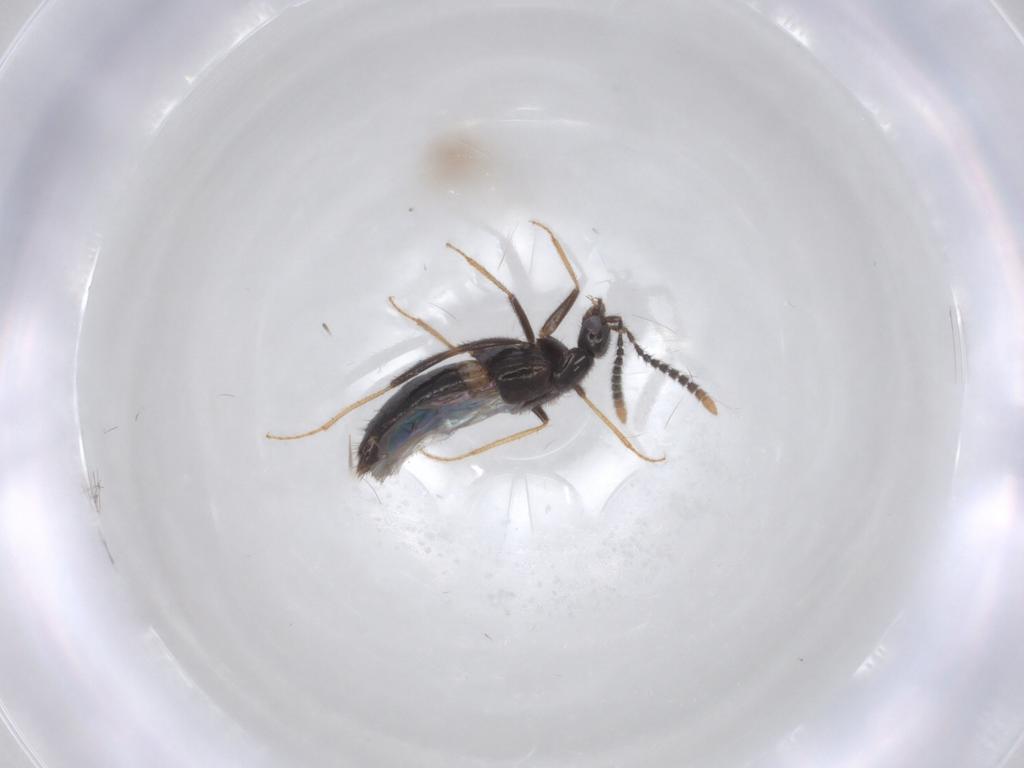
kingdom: Animalia
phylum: Arthropoda
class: Insecta
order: Coleoptera
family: Staphylinidae
